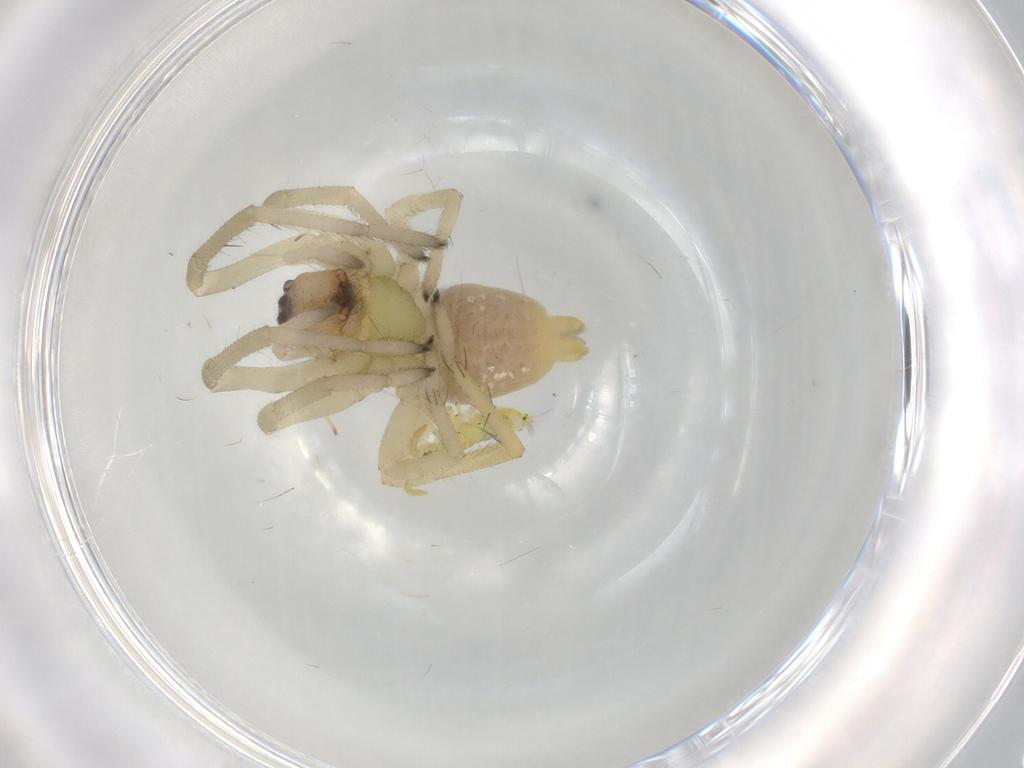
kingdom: Animalia
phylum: Arthropoda
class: Arachnida
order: Araneae
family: Cheiracanthiidae
